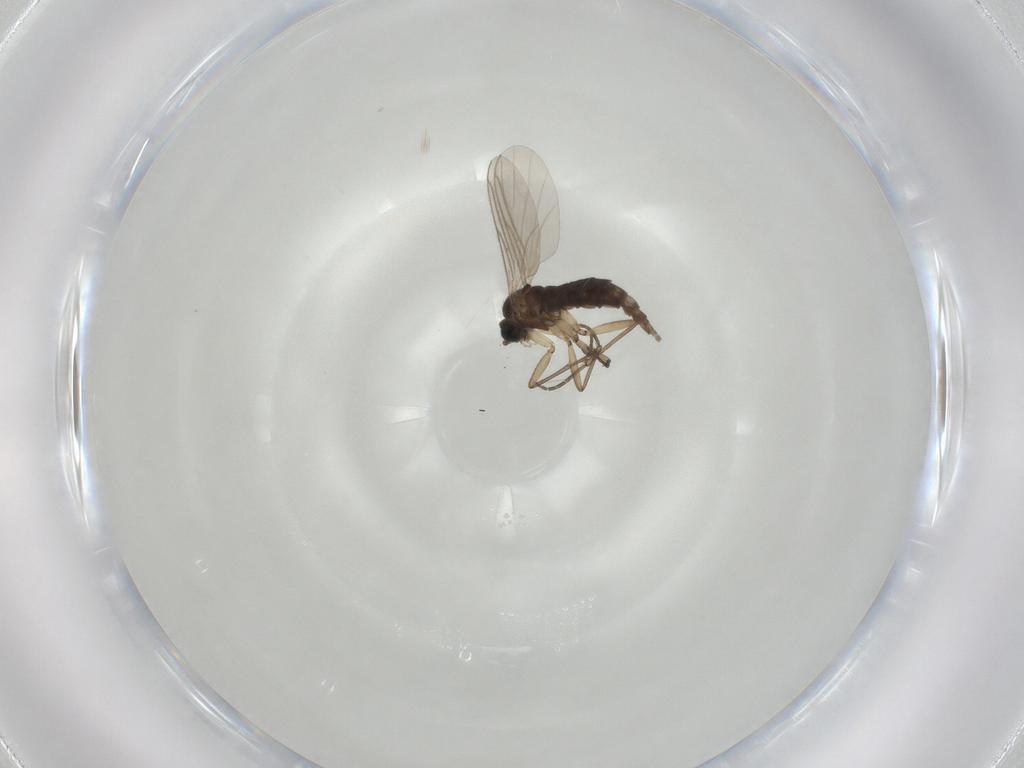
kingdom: Animalia
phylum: Arthropoda
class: Insecta
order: Diptera
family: Sciaridae
